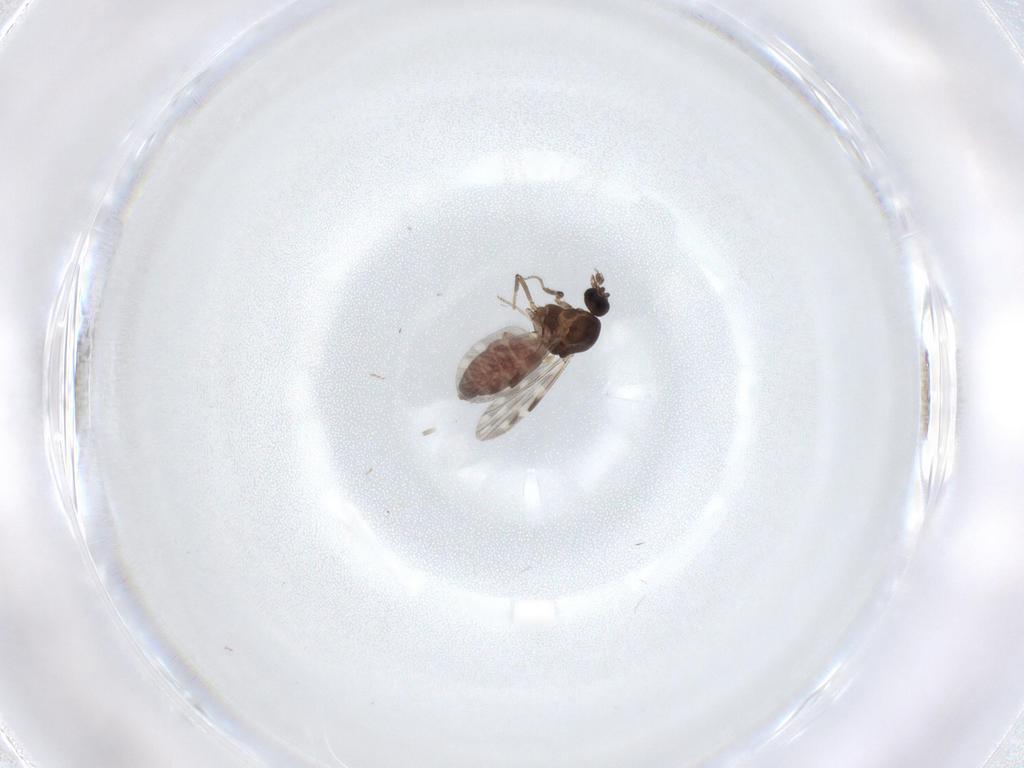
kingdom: Animalia
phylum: Arthropoda
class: Insecta
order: Diptera
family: Ceratopogonidae
